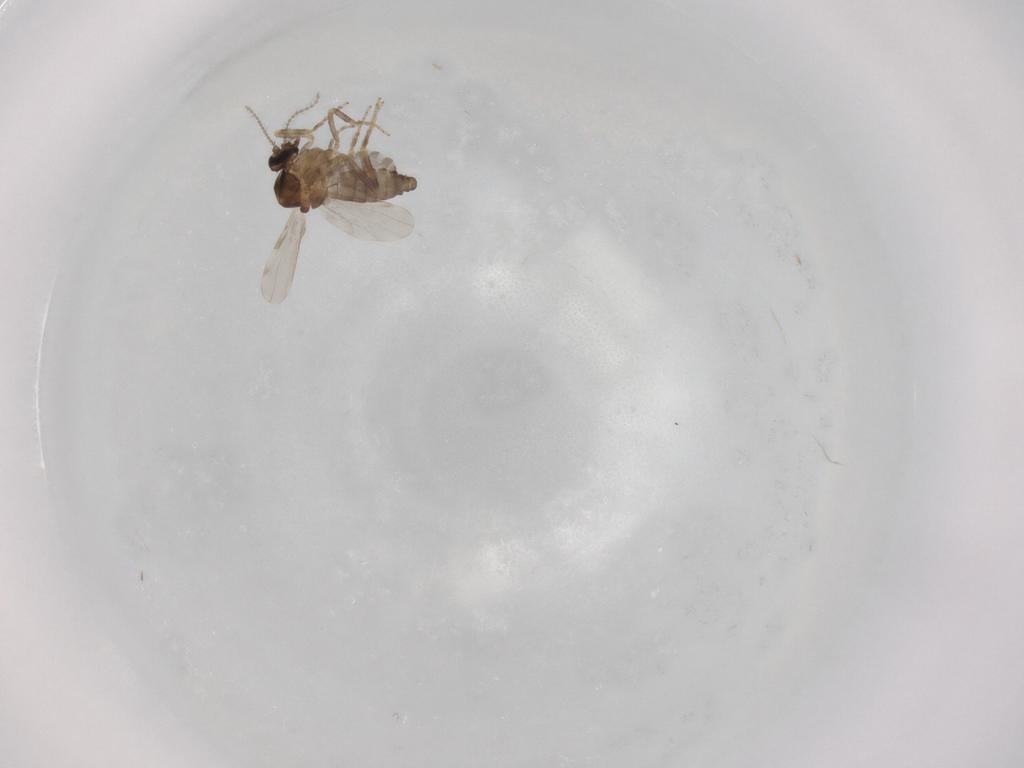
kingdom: Animalia
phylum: Arthropoda
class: Insecta
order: Diptera
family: Ceratopogonidae
